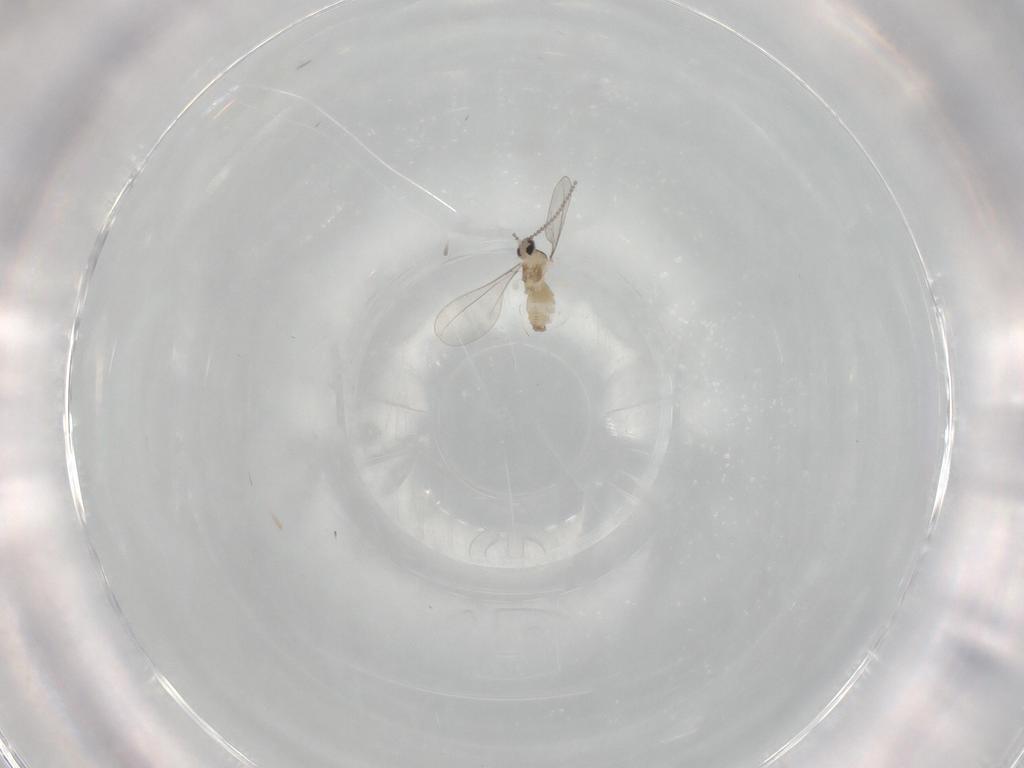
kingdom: Animalia
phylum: Arthropoda
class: Insecta
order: Diptera
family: Cecidomyiidae
